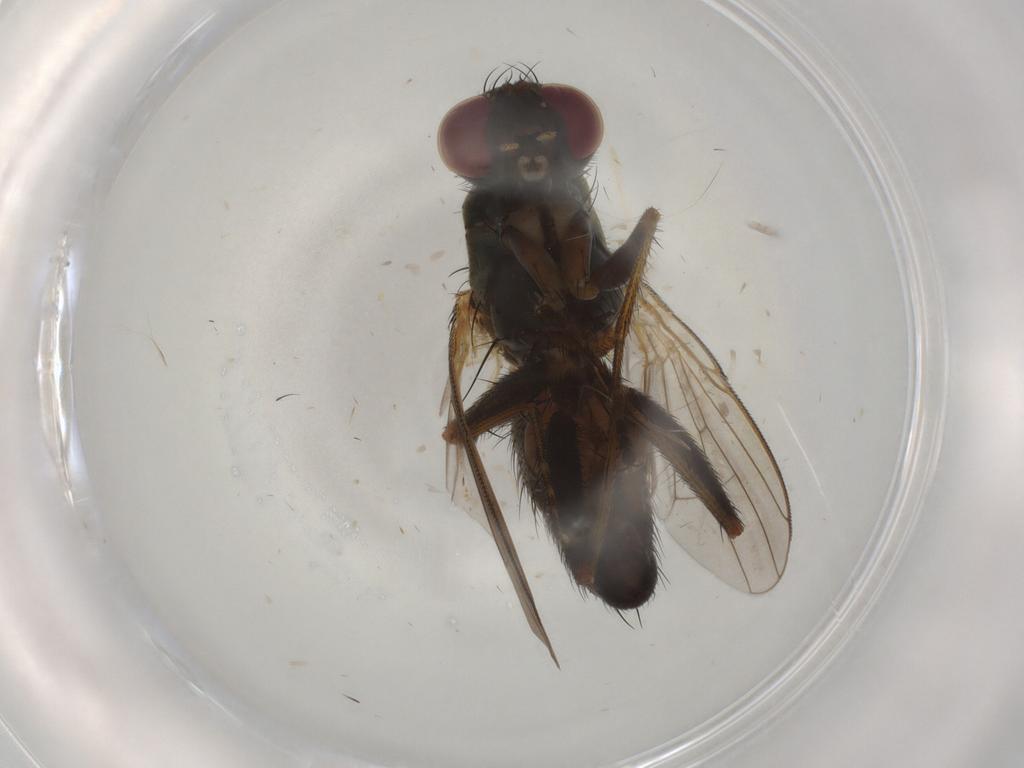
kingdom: Animalia
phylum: Arthropoda
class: Insecta
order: Diptera
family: Muscidae
